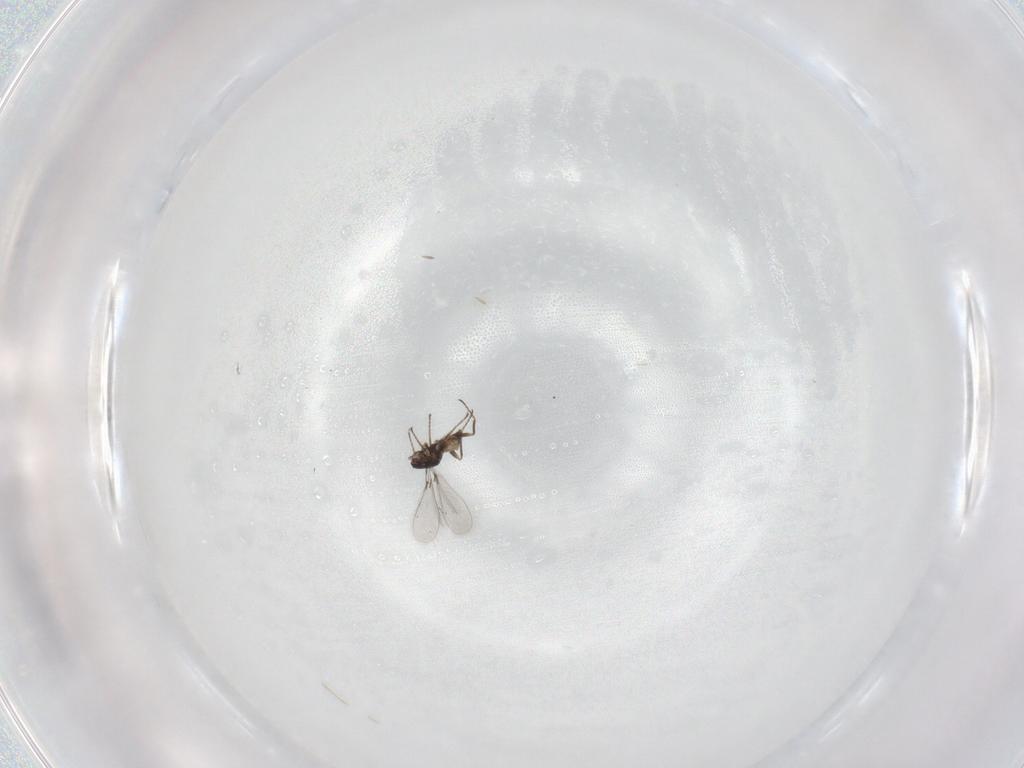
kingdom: Animalia
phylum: Arthropoda
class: Insecta
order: Hymenoptera
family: Mymaridae
